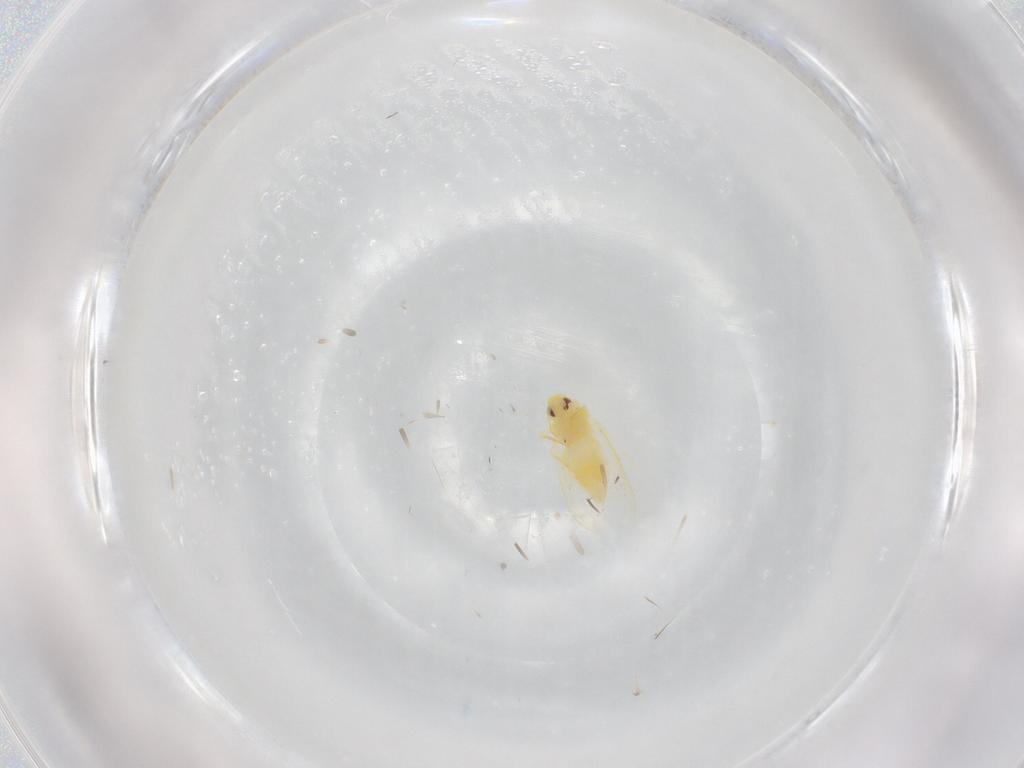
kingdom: Animalia
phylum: Arthropoda
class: Insecta
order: Hemiptera
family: Aleyrodidae
